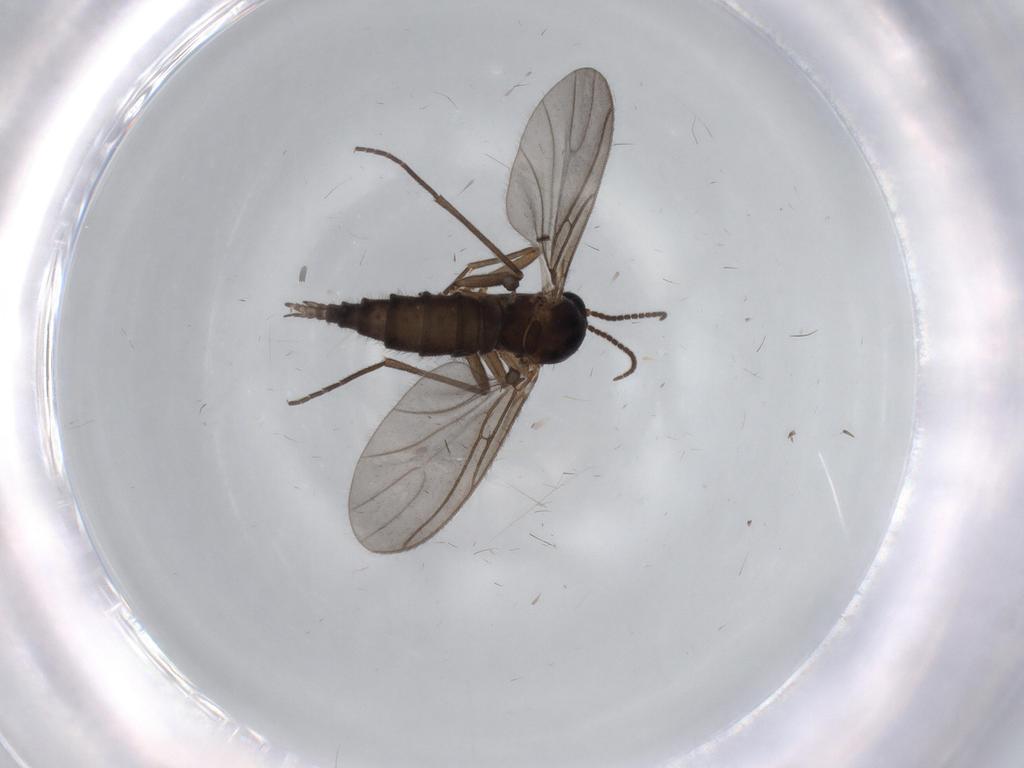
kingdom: Animalia
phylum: Arthropoda
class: Insecta
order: Diptera
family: Sciaridae
